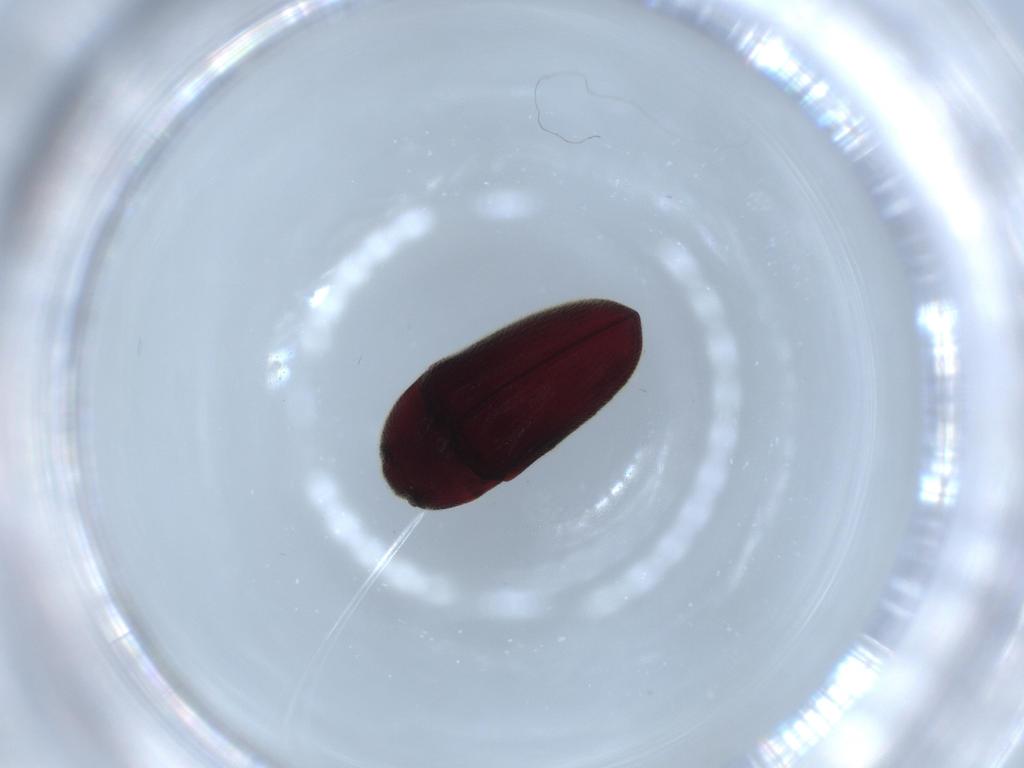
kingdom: Animalia
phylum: Arthropoda
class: Insecta
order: Coleoptera
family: Throscidae
